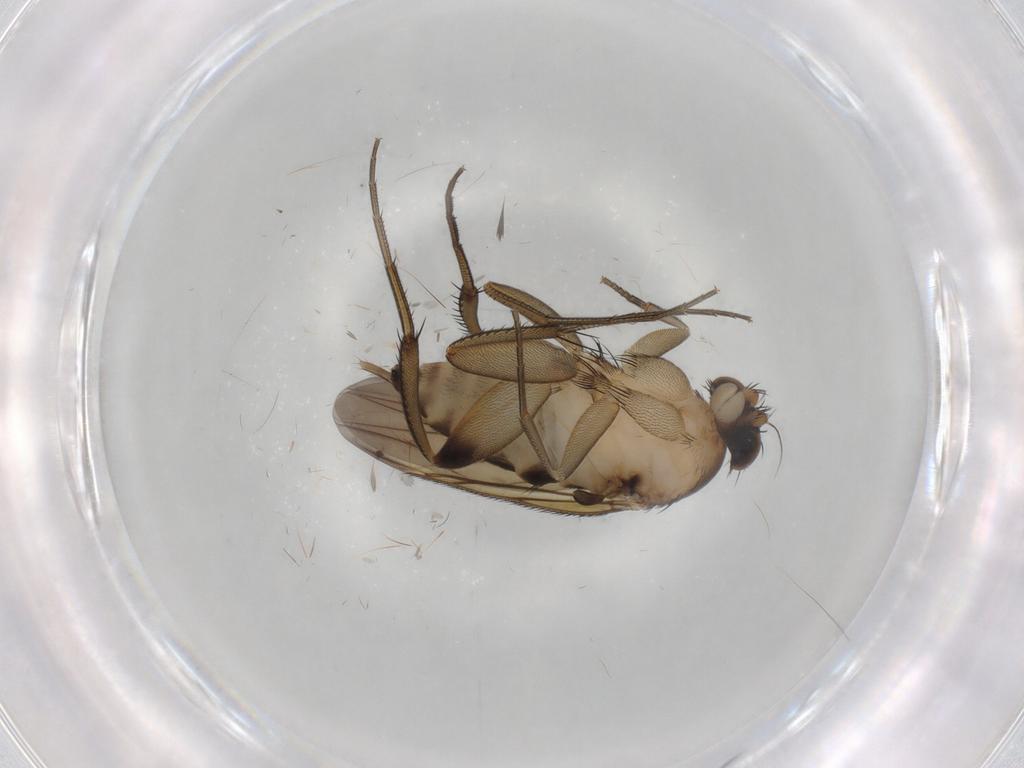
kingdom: Animalia
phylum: Arthropoda
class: Insecta
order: Diptera
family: Phoridae
